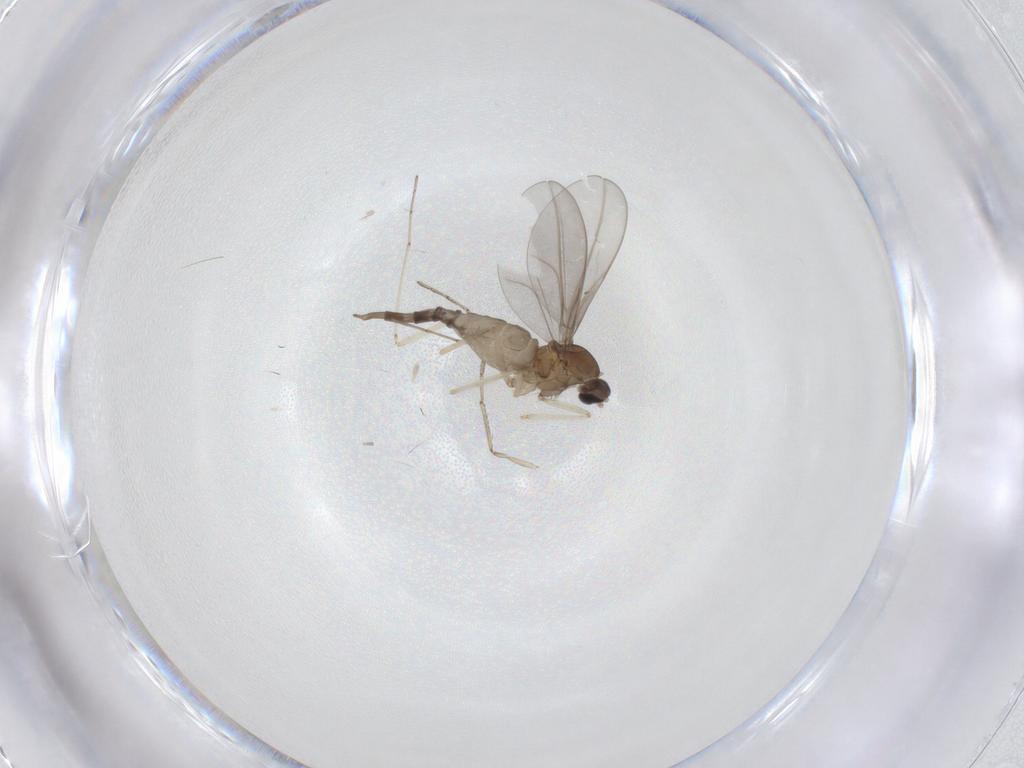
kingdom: Animalia
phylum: Arthropoda
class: Insecta
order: Diptera
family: Cecidomyiidae
